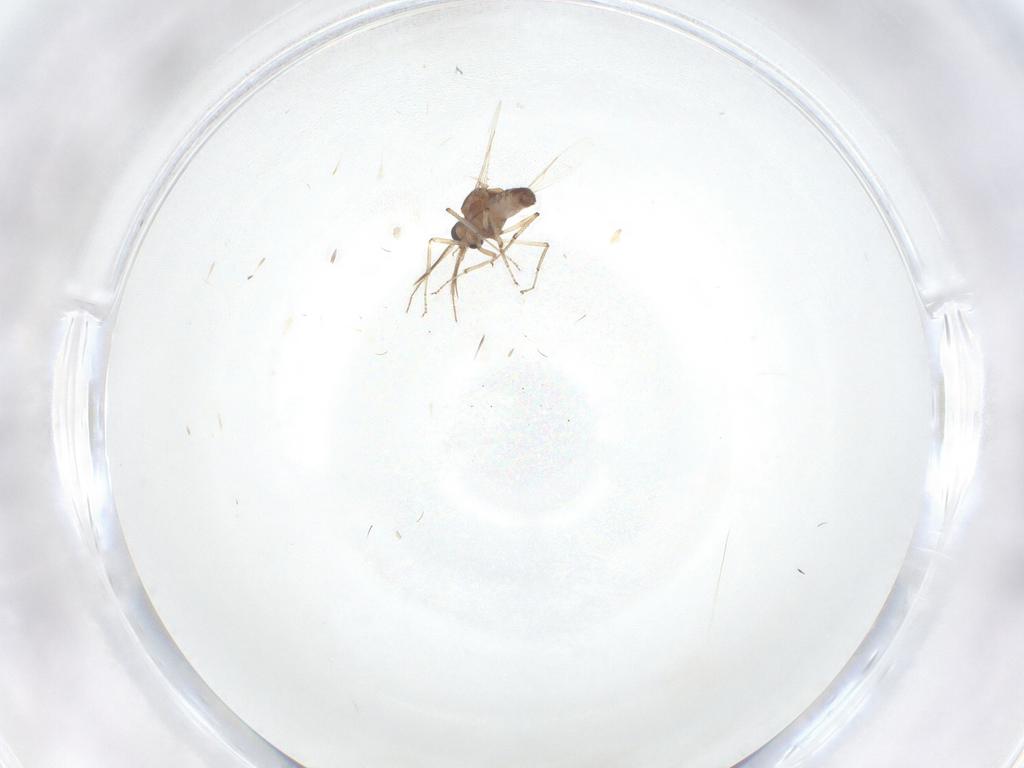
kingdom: Animalia
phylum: Arthropoda
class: Insecta
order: Diptera
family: Ceratopogonidae
